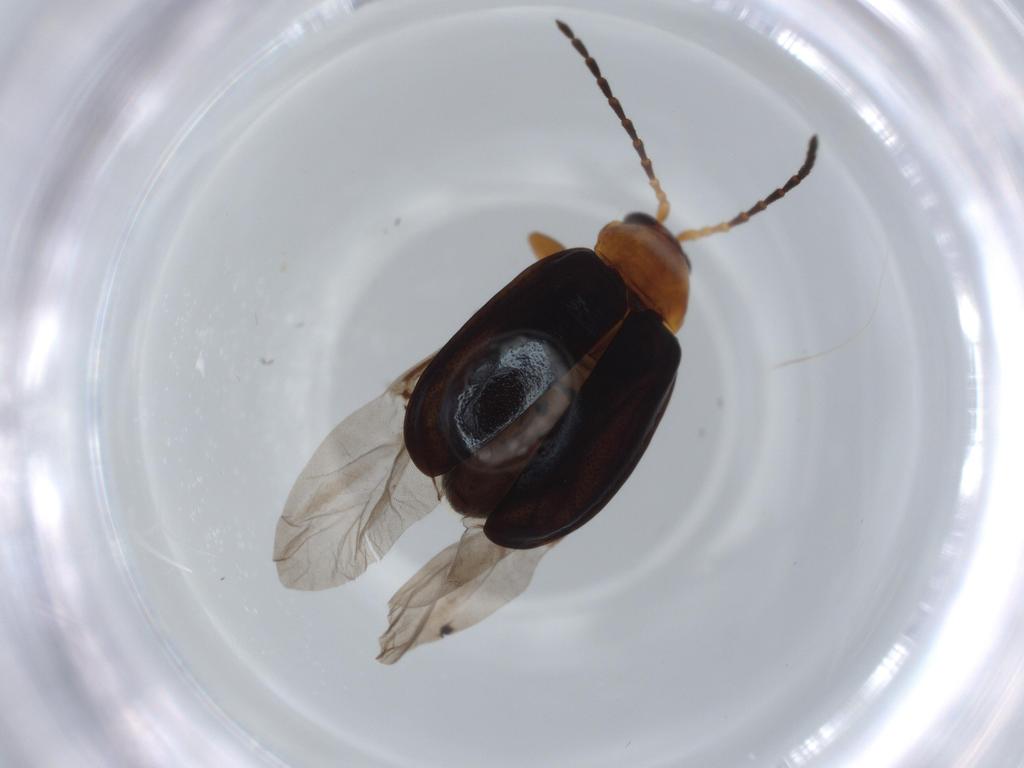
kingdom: Animalia
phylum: Arthropoda
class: Insecta
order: Coleoptera
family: Chrysomelidae
